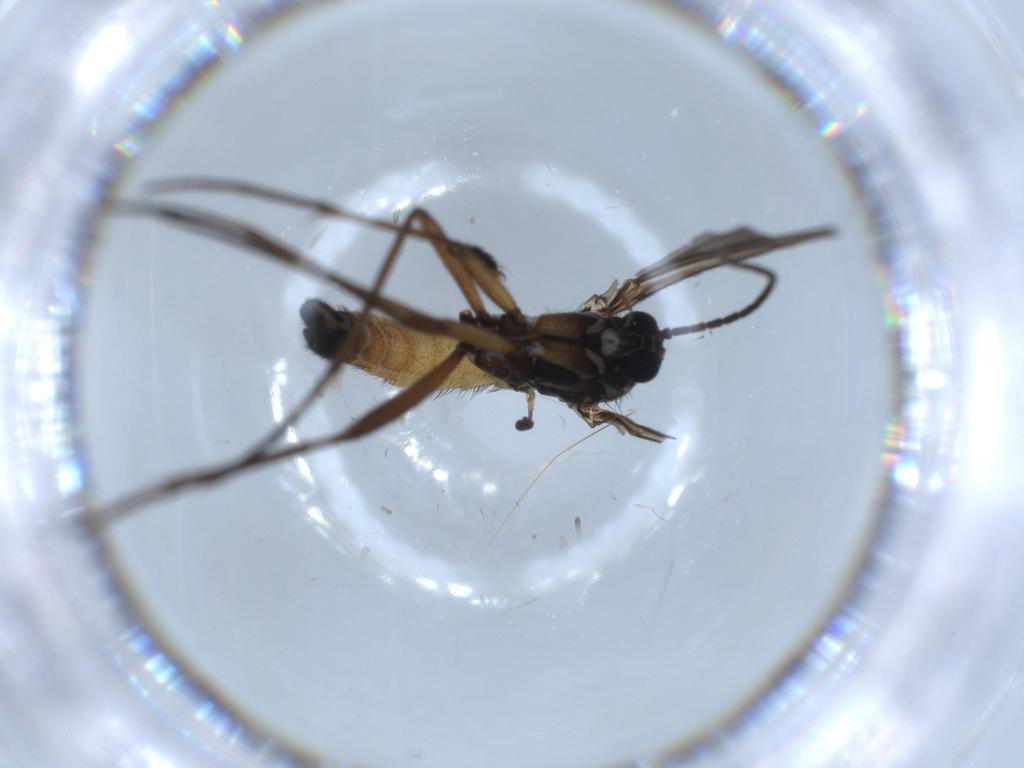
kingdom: Animalia
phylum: Arthropoda
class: Insecta
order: Diptera
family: Sciaridae
